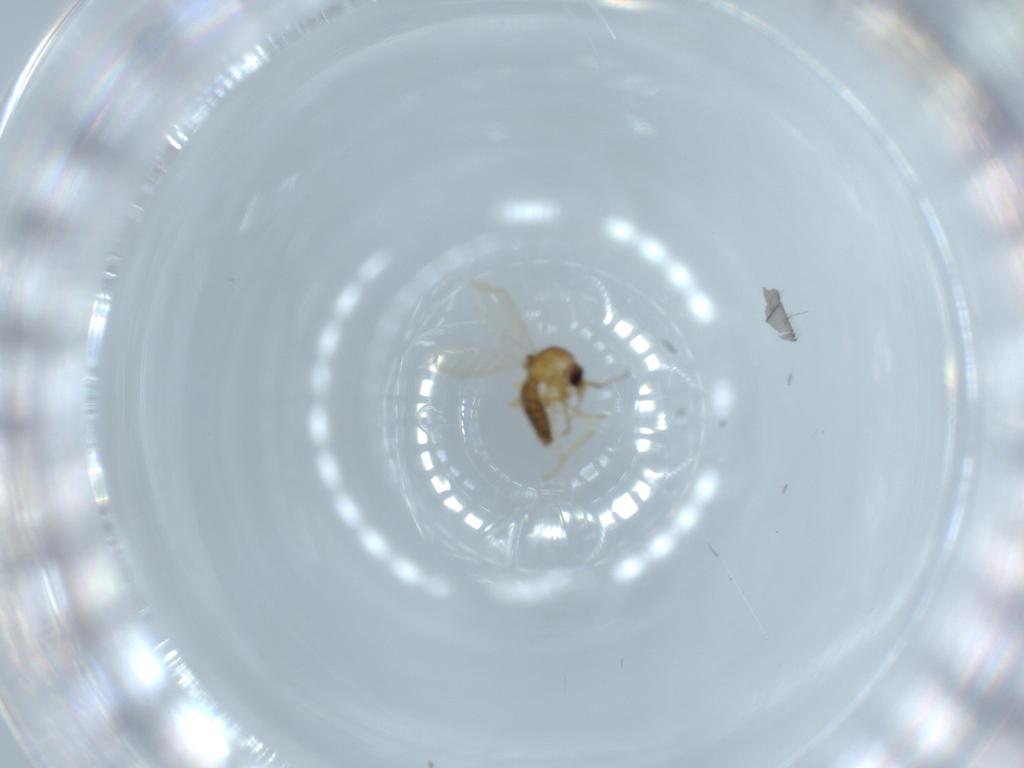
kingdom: Animalia
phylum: Arthropoda
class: Insecta
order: Diptera
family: Ceratopogonidae
